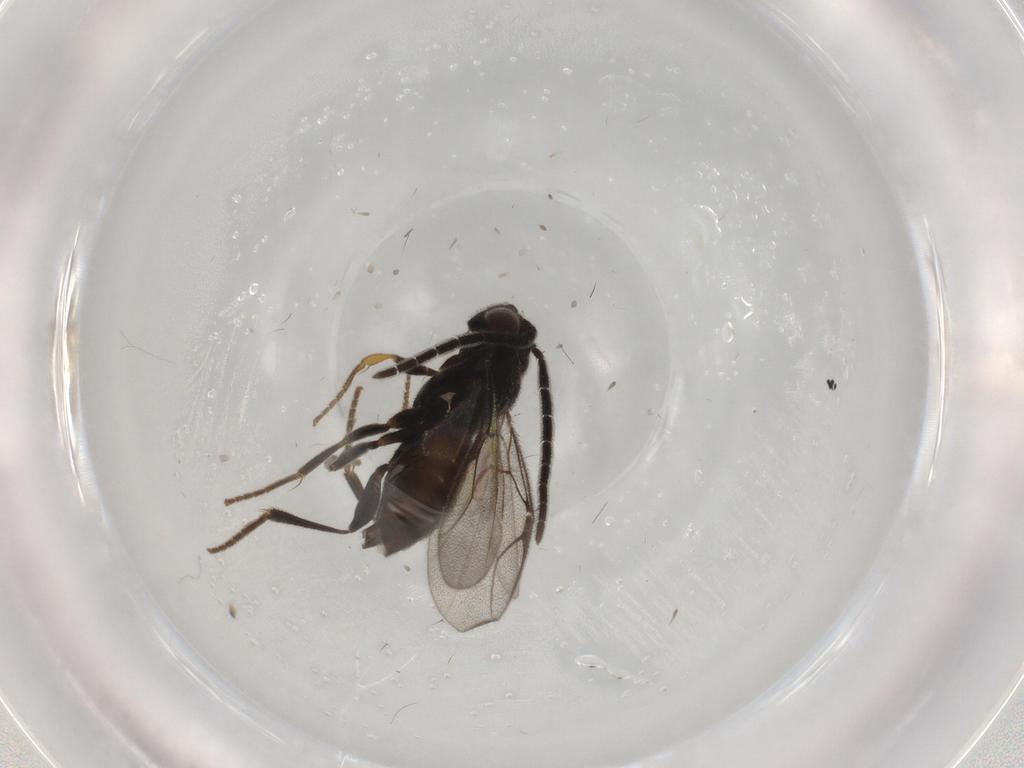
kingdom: Animalia
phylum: Arthropoda
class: Insecta
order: Hymenoptera
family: Dryinidae
